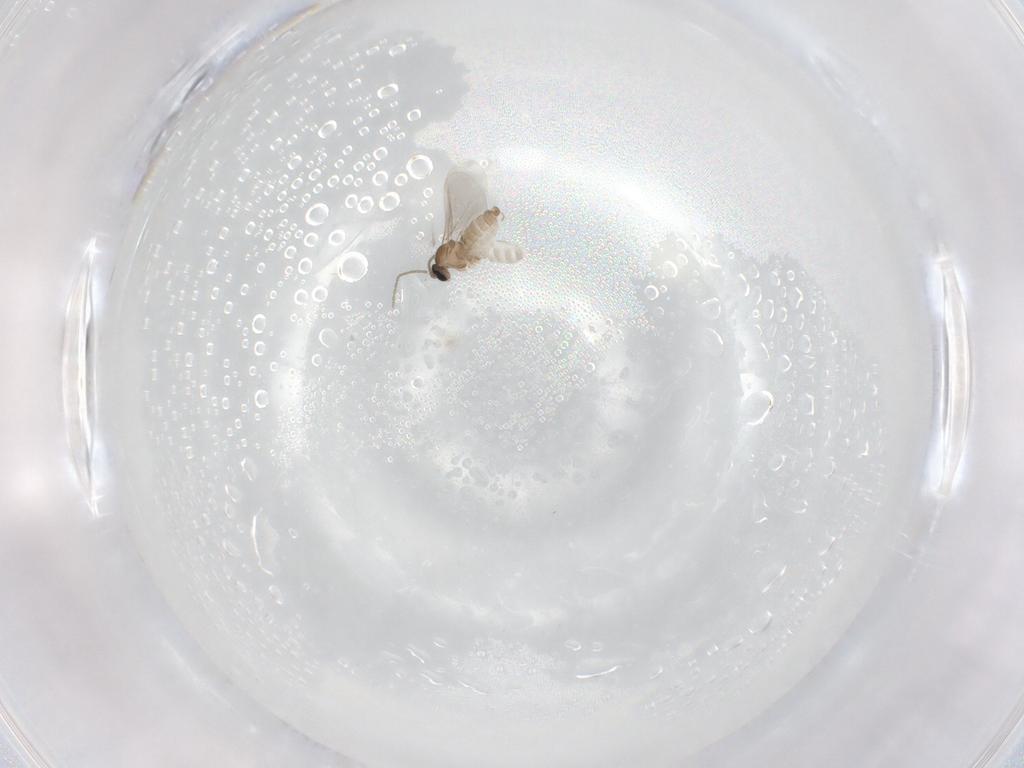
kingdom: Animalia
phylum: Arthropoda
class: Insecta
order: Diptera
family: Cecidomyiidae
